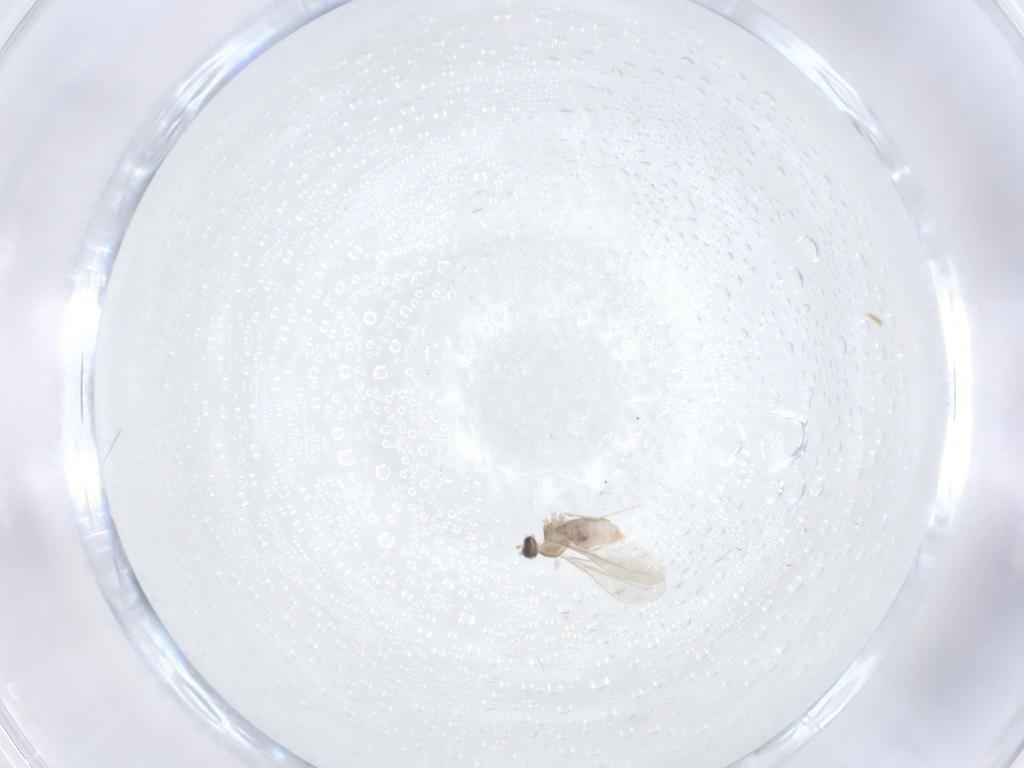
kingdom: Animalia
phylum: Arthropoda
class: Insecta
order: Diptera
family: Cecidomyiidae
